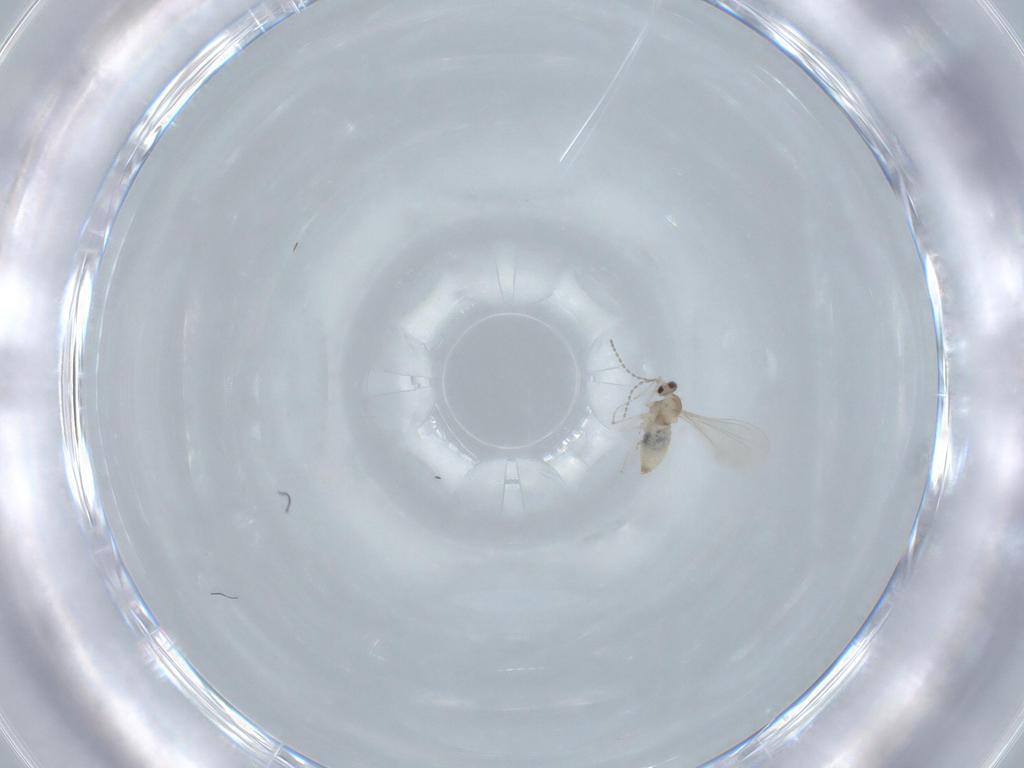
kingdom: Animalia
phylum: Arthropoda
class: Insecta
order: Diptera
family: Cecidomyiidae
